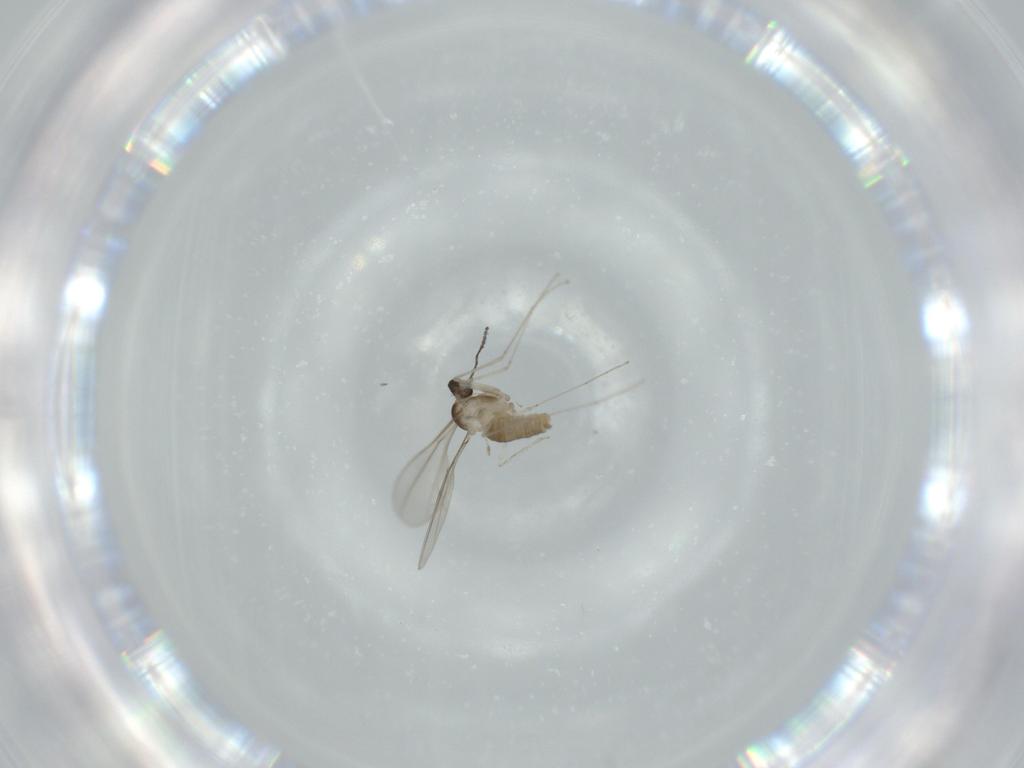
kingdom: Animalia
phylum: Arthropoda
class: Insecta
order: Diptera
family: Cecidomyiidae
